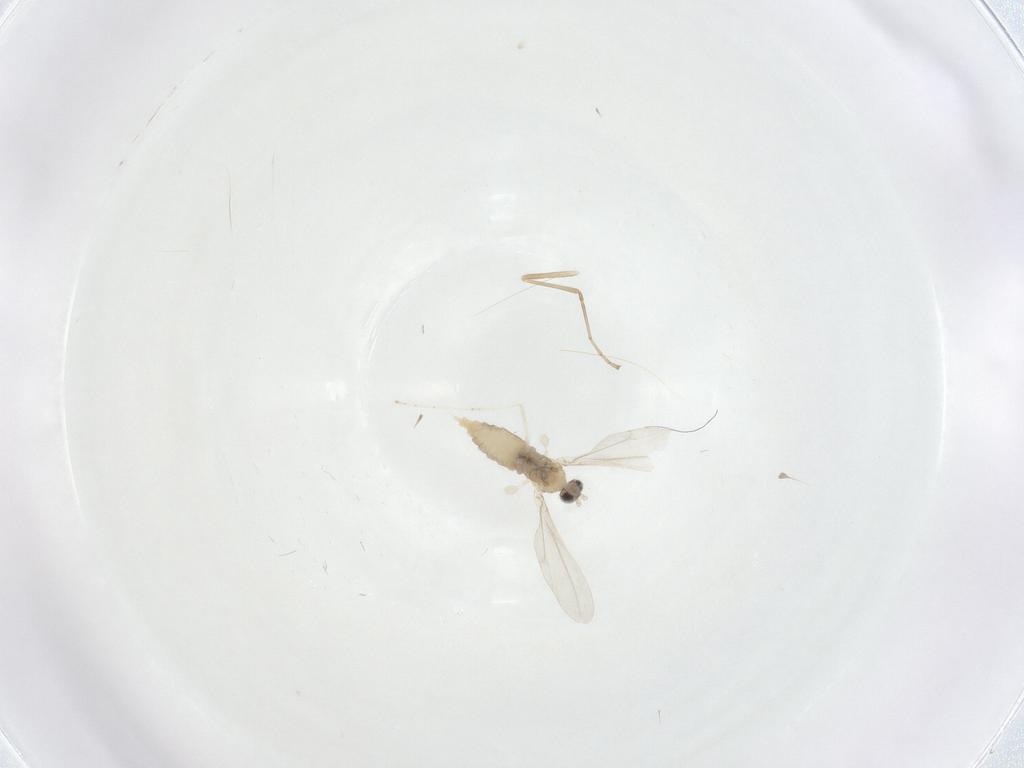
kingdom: Animalia
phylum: Arthropoda
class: Insecta
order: Diptera
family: Cecidomyiidae
